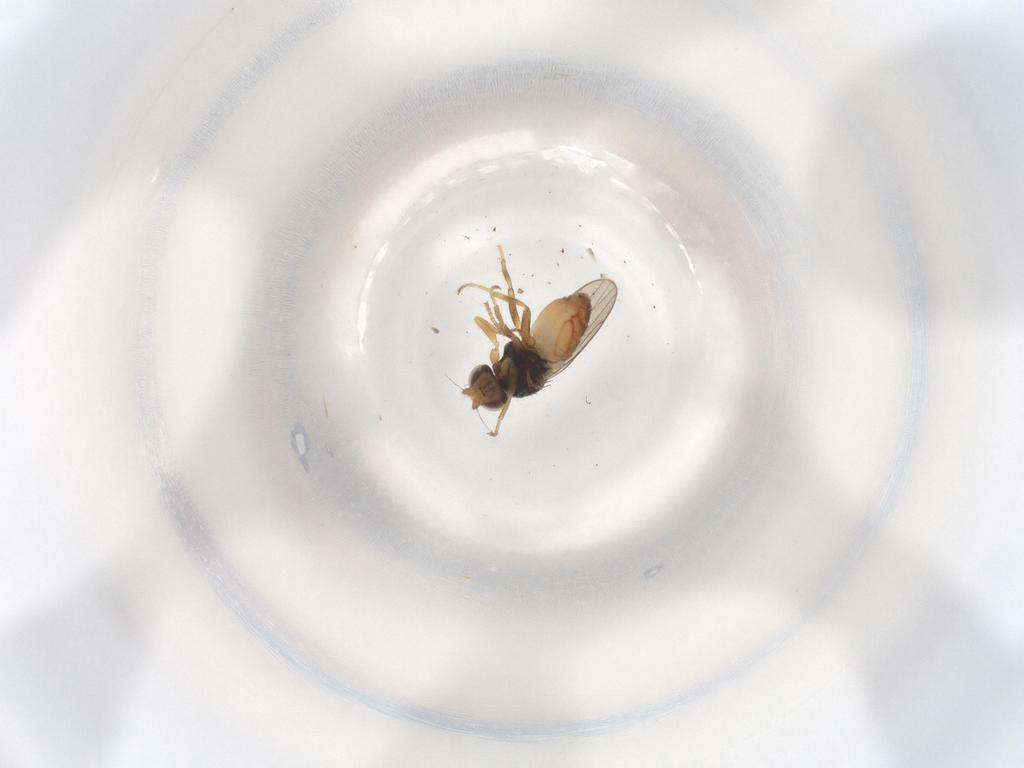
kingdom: Animalia
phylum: Arthropoda
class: Insecta
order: Diptera
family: Chloropidae
